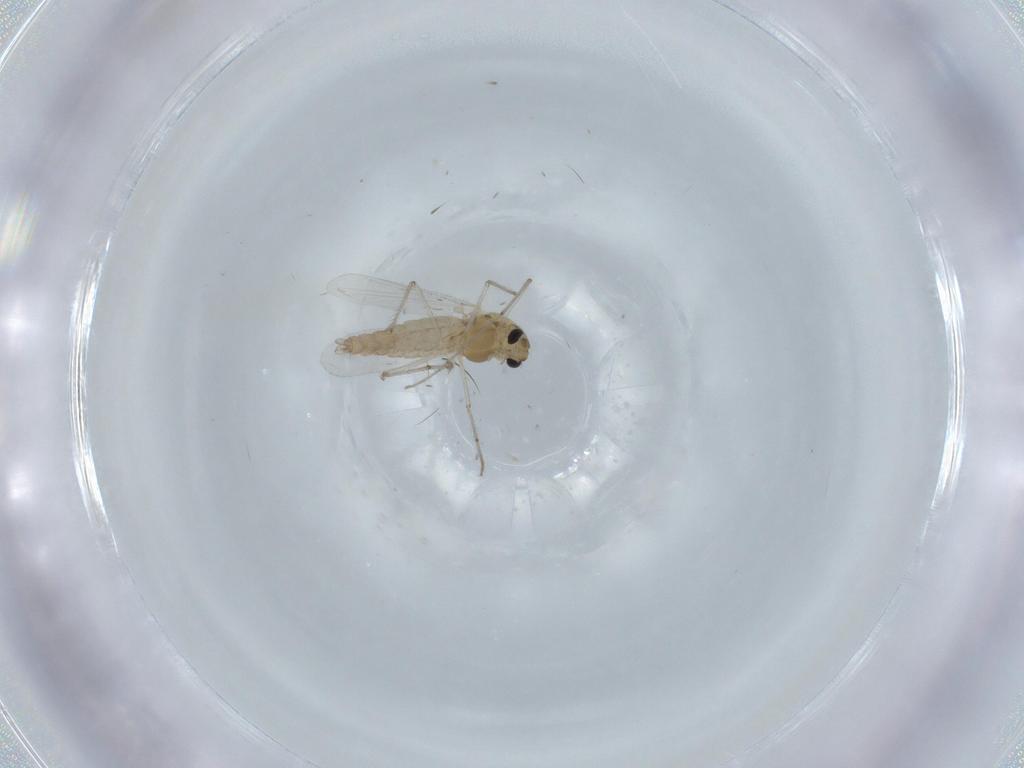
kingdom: Animalia
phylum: Arthropoda
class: Insecta
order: Diptera
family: Chironomidae
